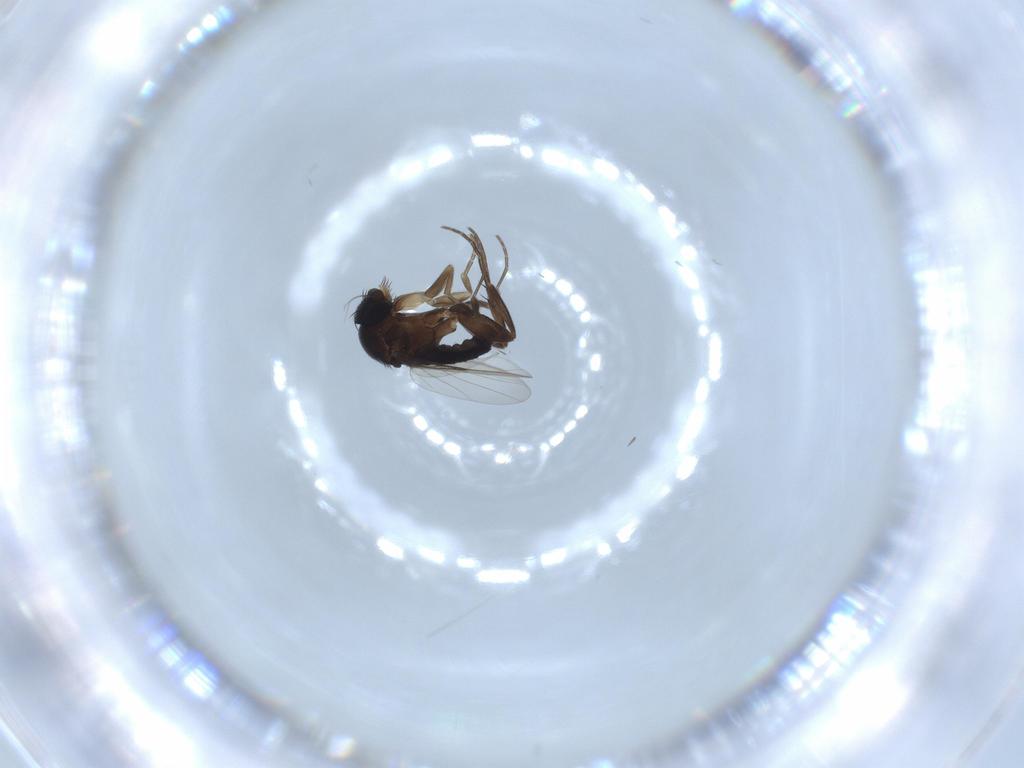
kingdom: Animalia
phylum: Arthropoda
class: Insecta
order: Diptera
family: Phoridae
